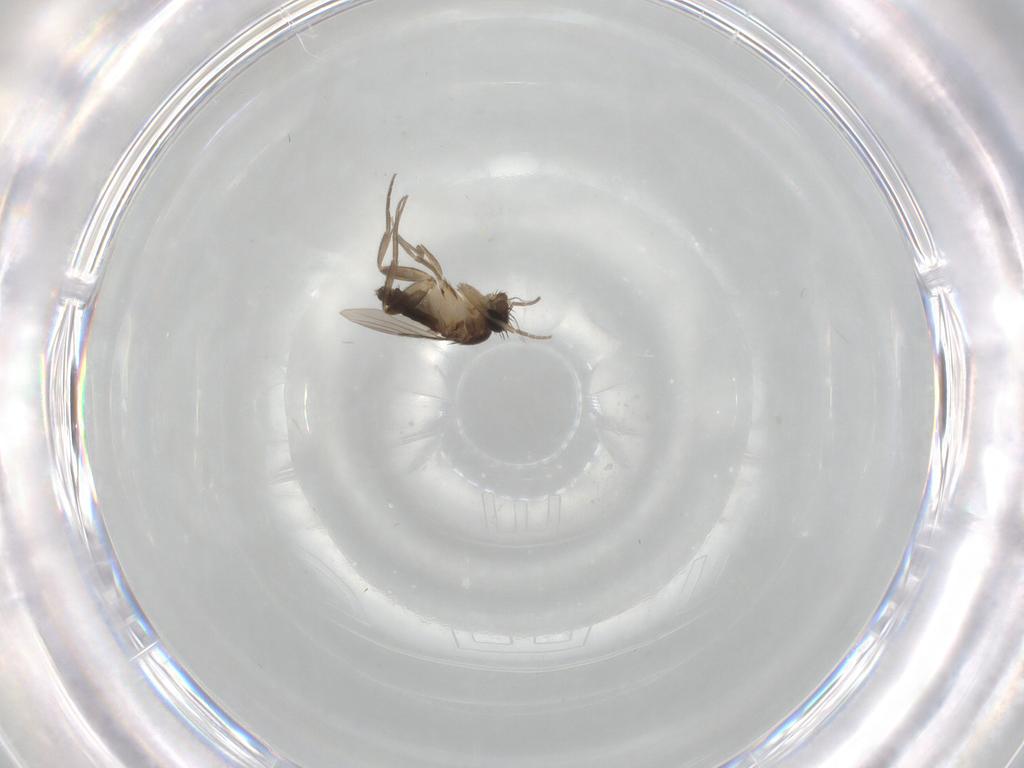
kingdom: Animalia
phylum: Arthropoda
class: Insecta
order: Diptera
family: Phoridae
